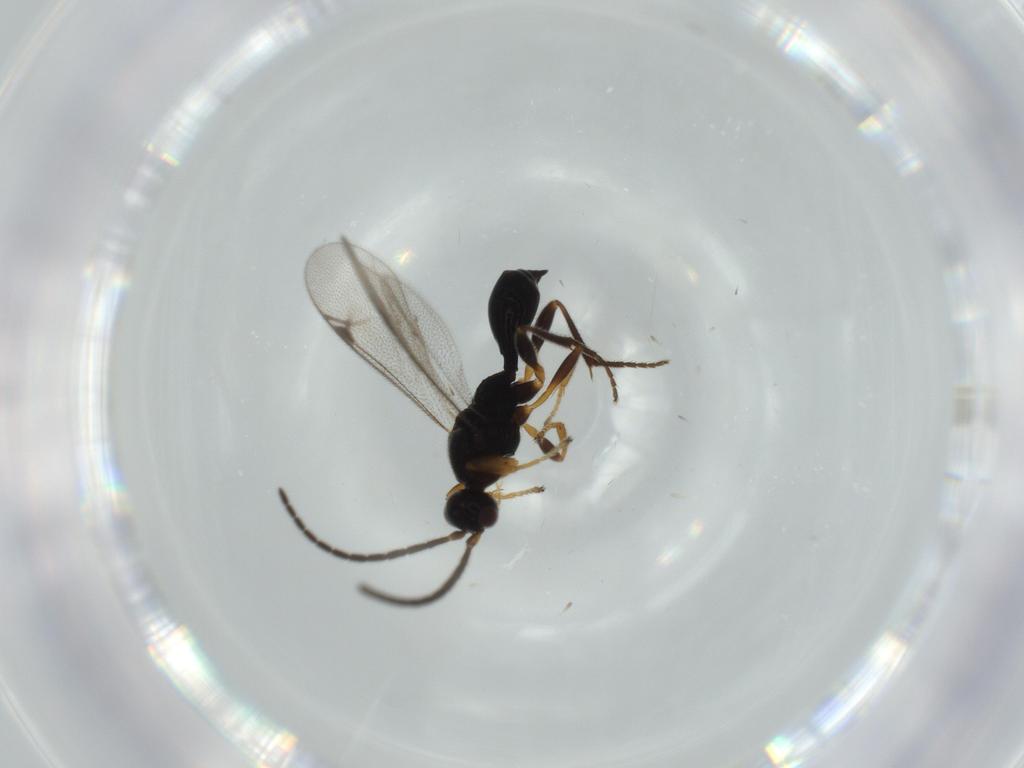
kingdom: Animalia
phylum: Arthropoda
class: Insecta
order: Hymenoptera
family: Proctotrupidae
